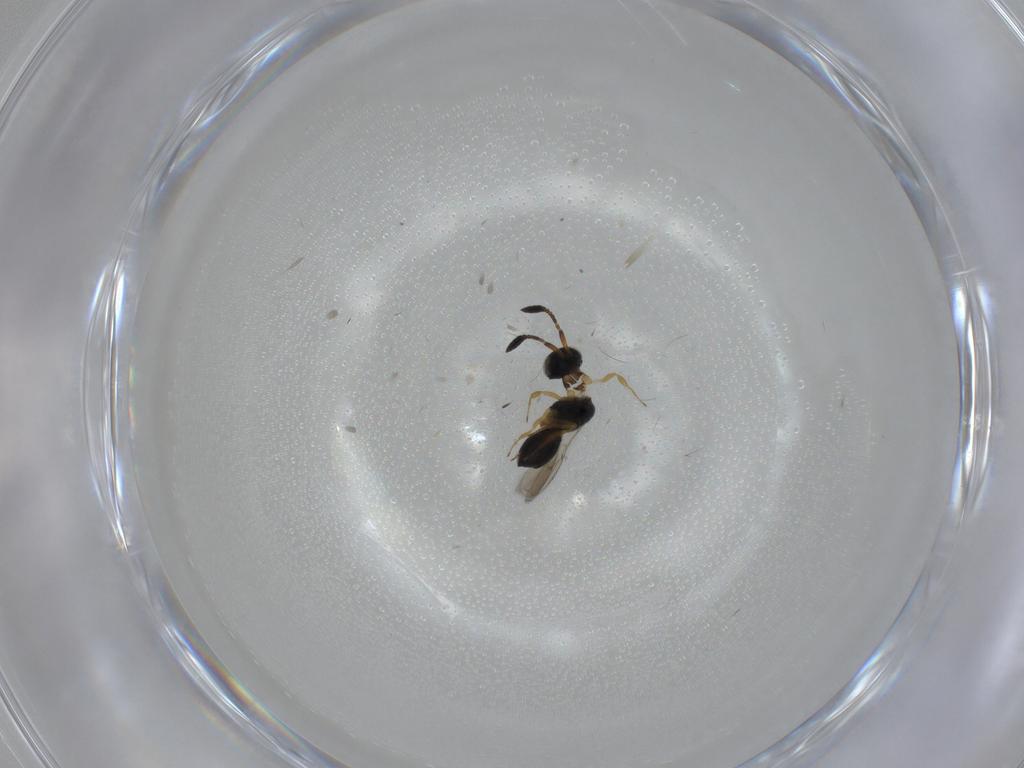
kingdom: Animalia
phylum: Arthropoda
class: Insecta
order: Hymenoptera
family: Scelionidae
